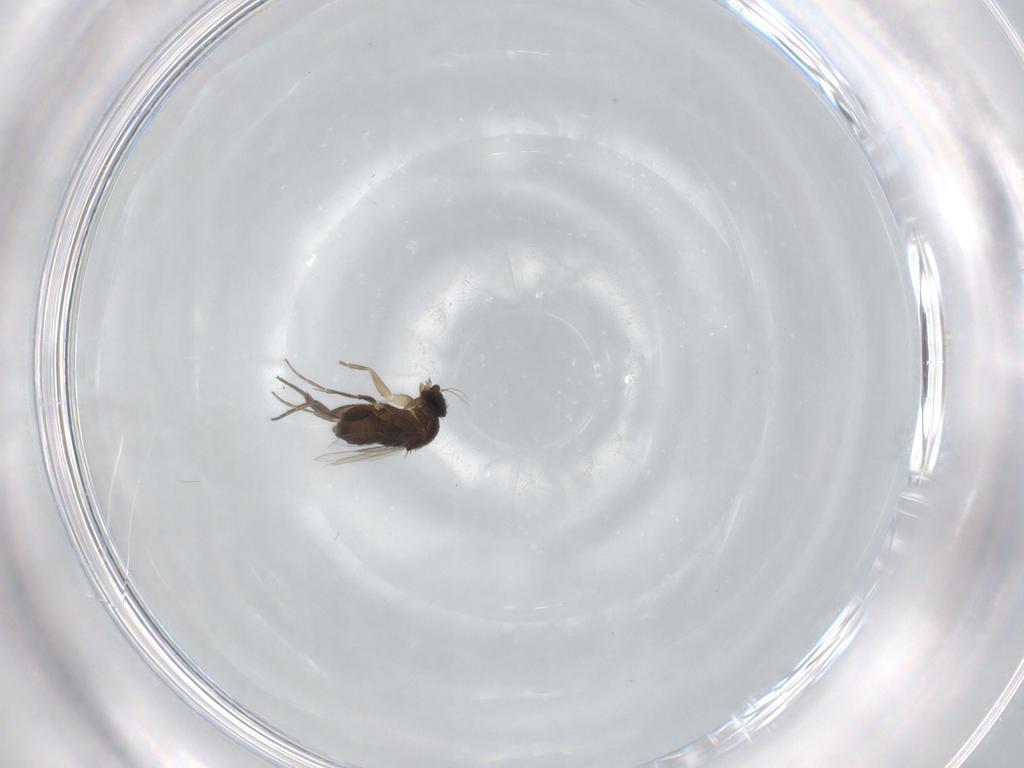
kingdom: Animalia
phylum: Arthropoda
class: Insecta
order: Diptera
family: Phoridae
